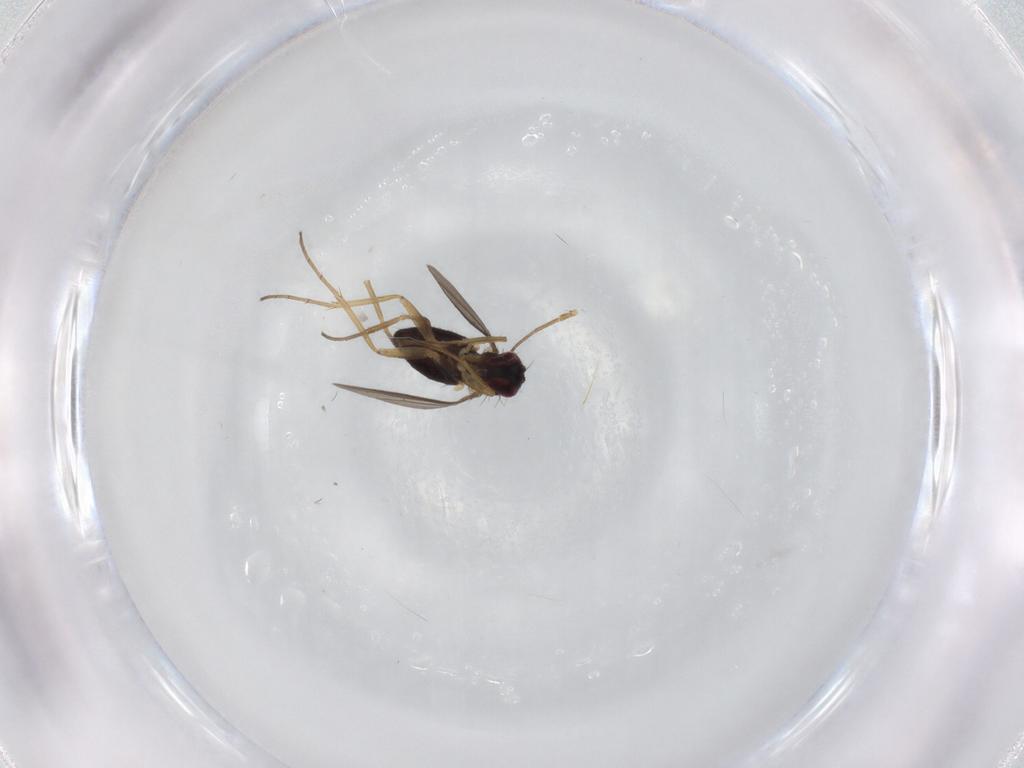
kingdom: Animalia
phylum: Arthropoda
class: Insecta
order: Diptera
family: Dolichopodidae
